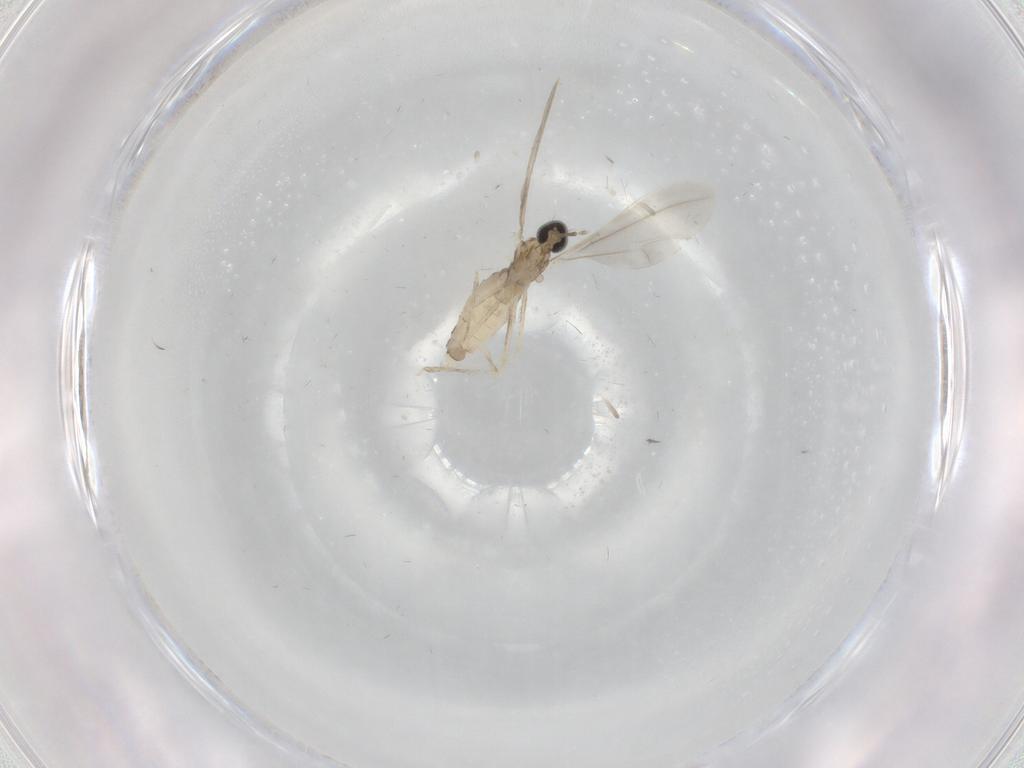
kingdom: Animalia
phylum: Arthropoda
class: Insecta
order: Diptera
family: Cecidomyiidae
